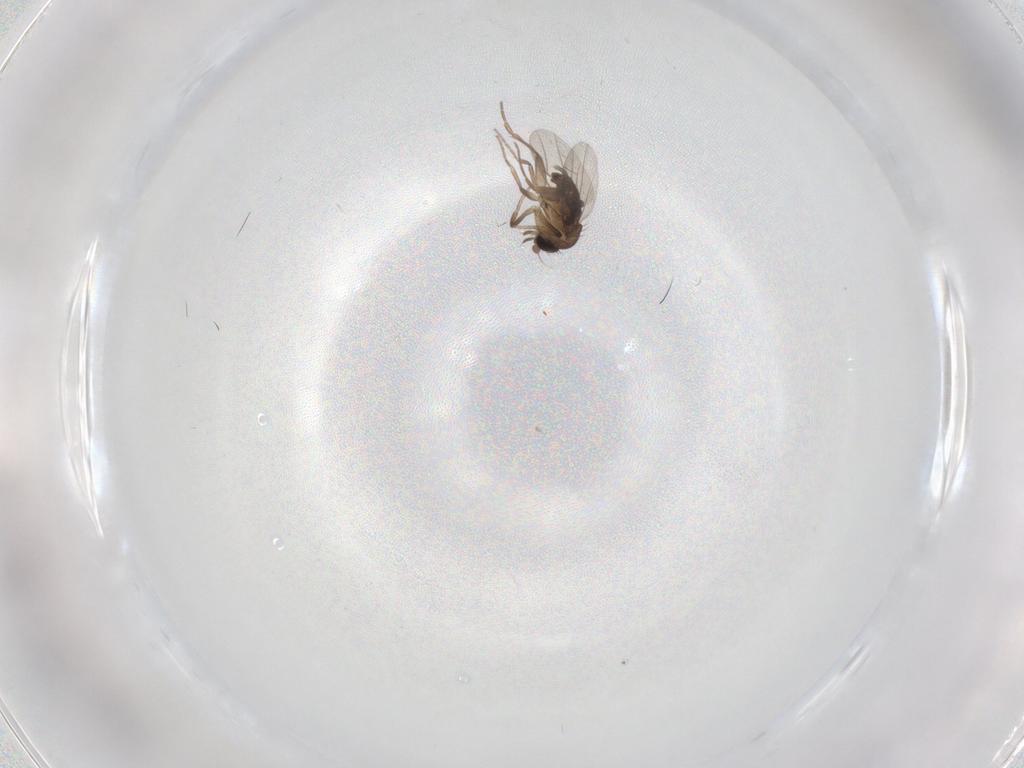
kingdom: Animalia
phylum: Arthropoda
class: Insecta
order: Diptera
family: Phoridae
